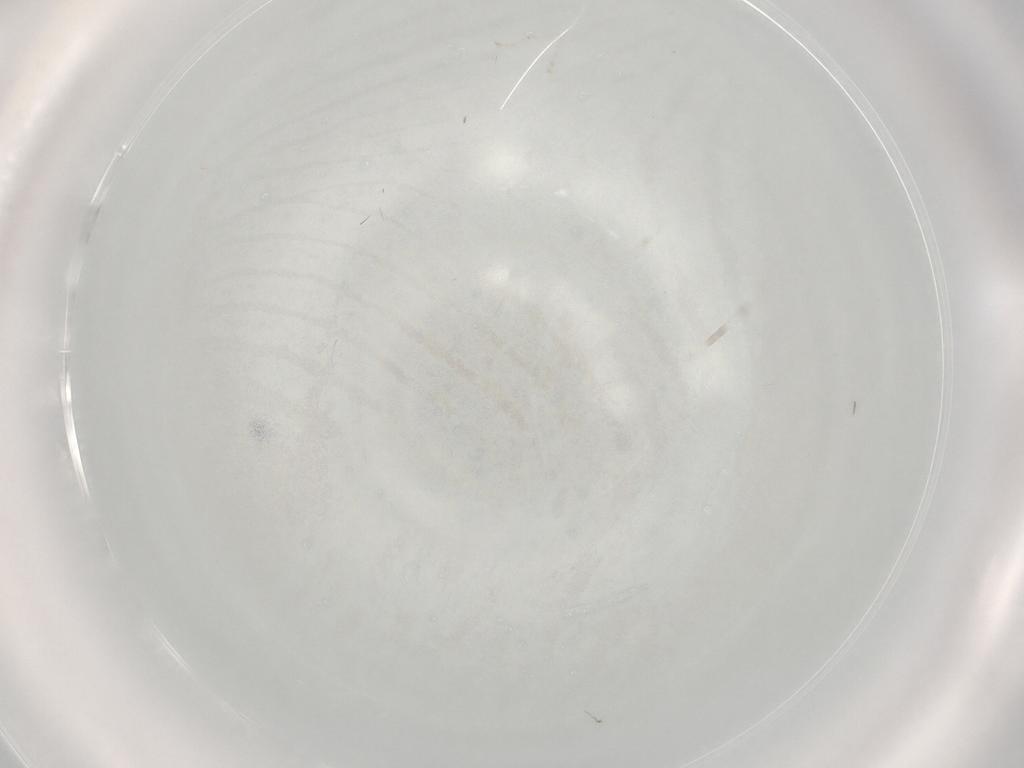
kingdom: Animalia
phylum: Arthropoda
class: Insecta
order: Diptera
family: Cecidomyiidae
